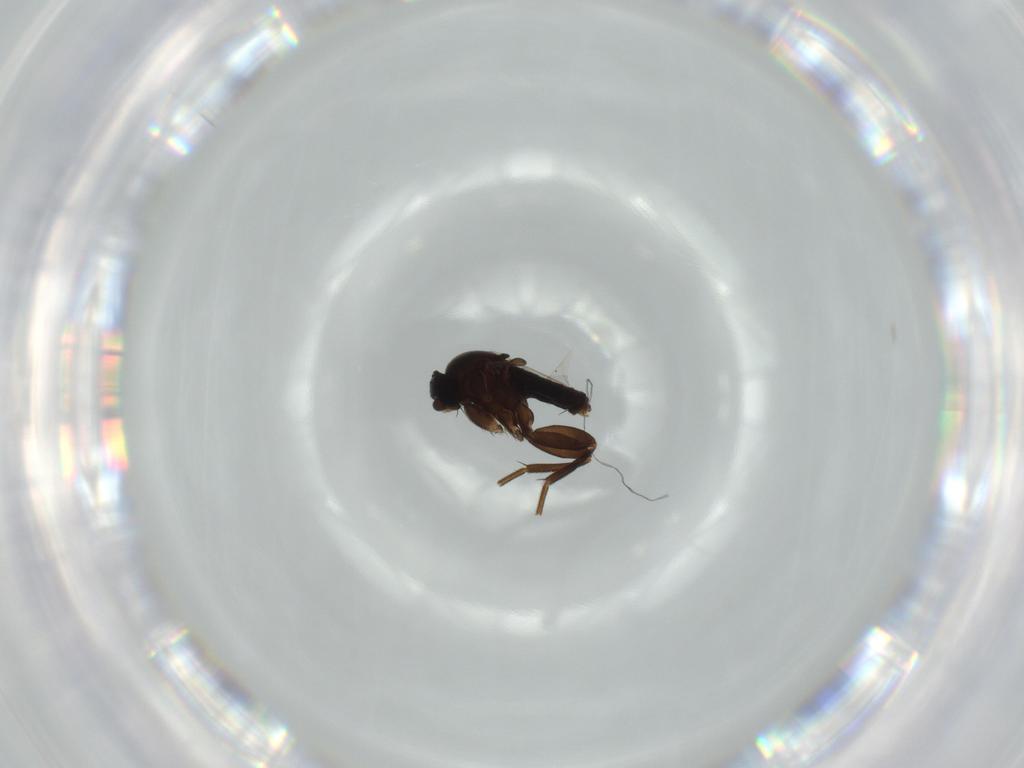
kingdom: Animalia
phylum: Arthropoda
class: Insecta
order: Diptera
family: Phoridae
